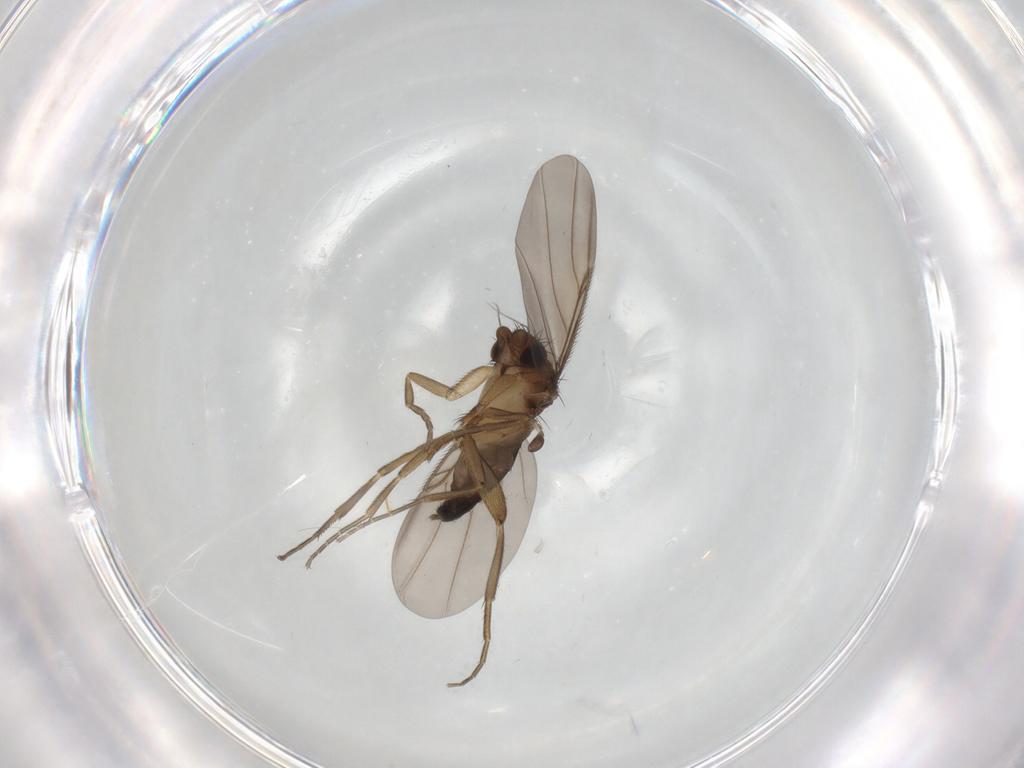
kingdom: Animalia
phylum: Arthropoda
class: Insecta
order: Diptera
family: Phoridae
